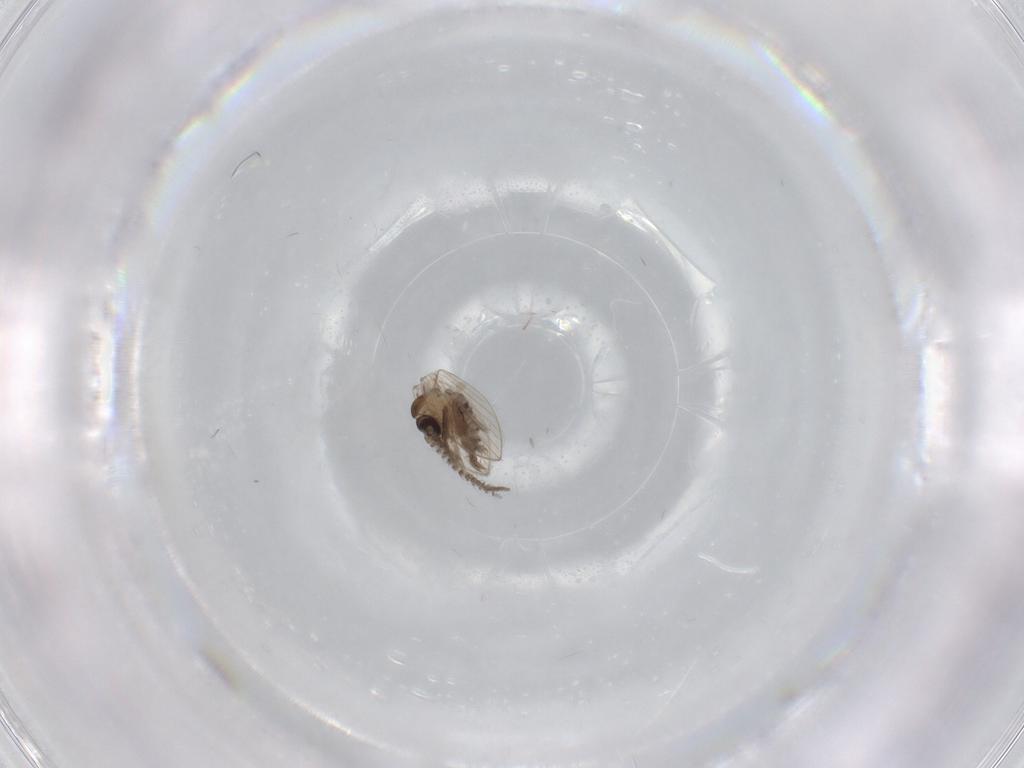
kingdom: Animalia
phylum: Arthropoda
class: Insecta
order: Diptera
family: Psychodidae
